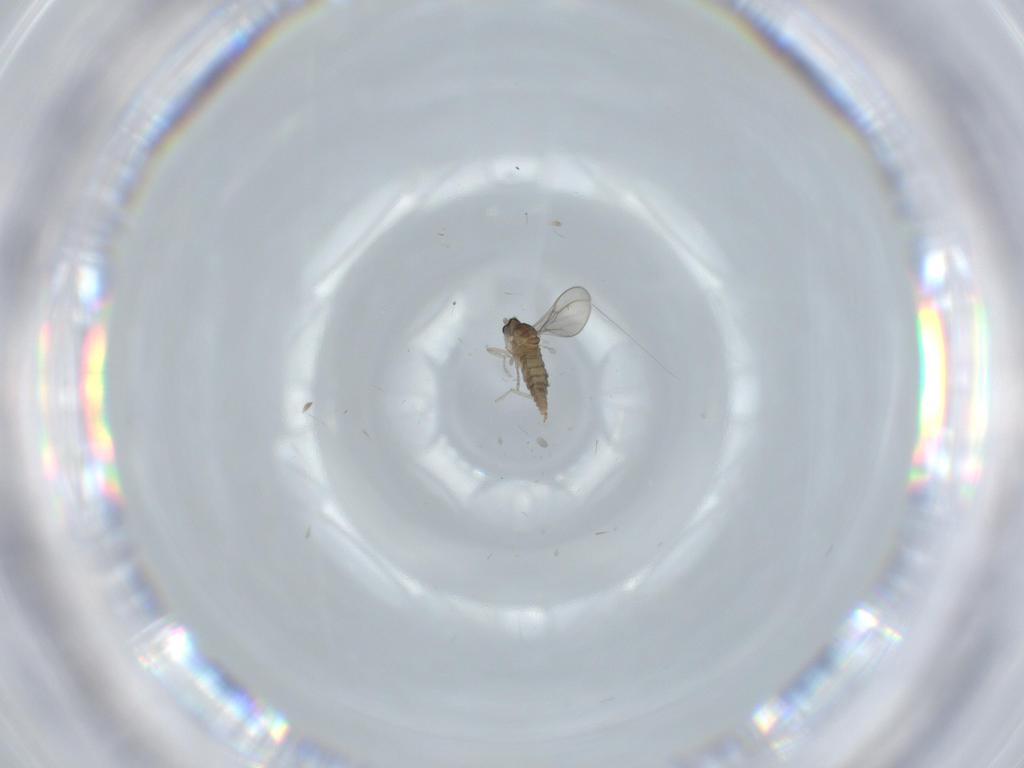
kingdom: Animalia
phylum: Arthropoda
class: Insecta
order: Diptera
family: Cecidomyiidae
